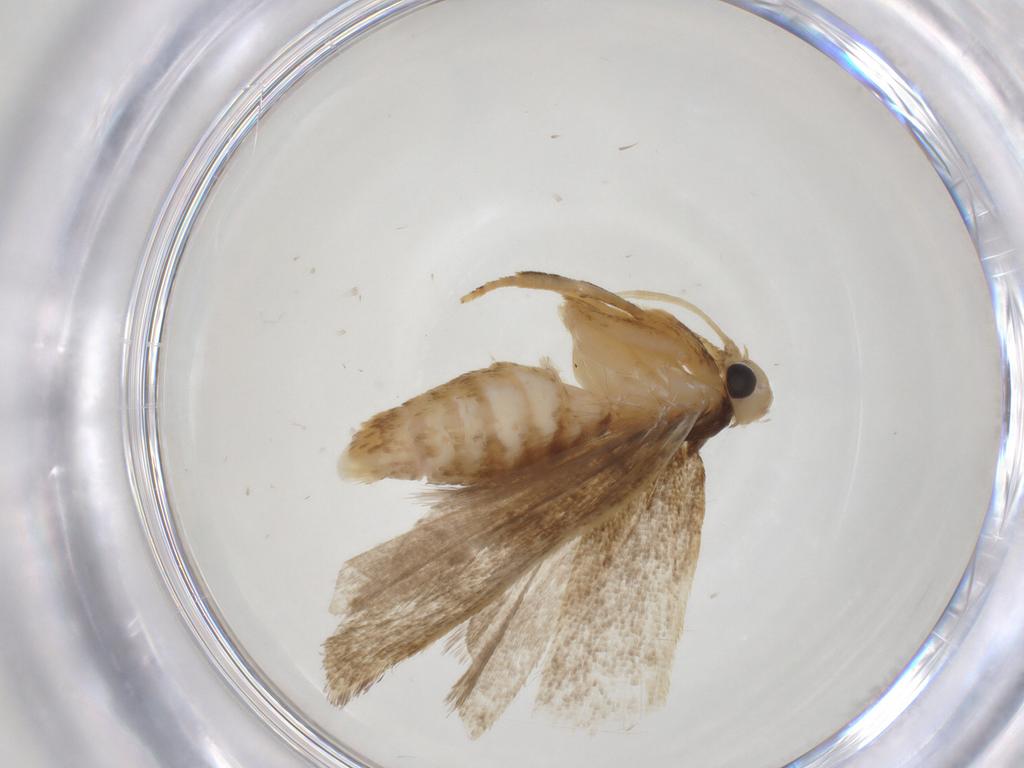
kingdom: Animalia
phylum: Arthropoda
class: Insecta
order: Lepidoptera
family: Gelechiidae
